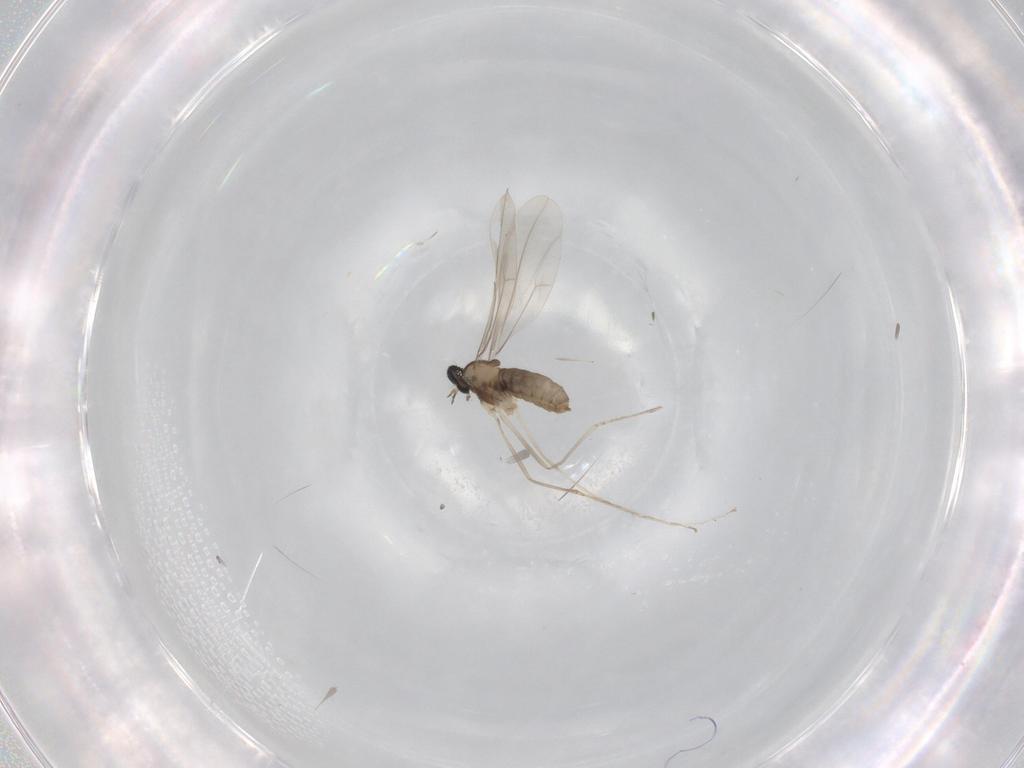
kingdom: Animalia
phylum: Arthropoda
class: Insecta
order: Diptera
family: Cecidomyiidae
